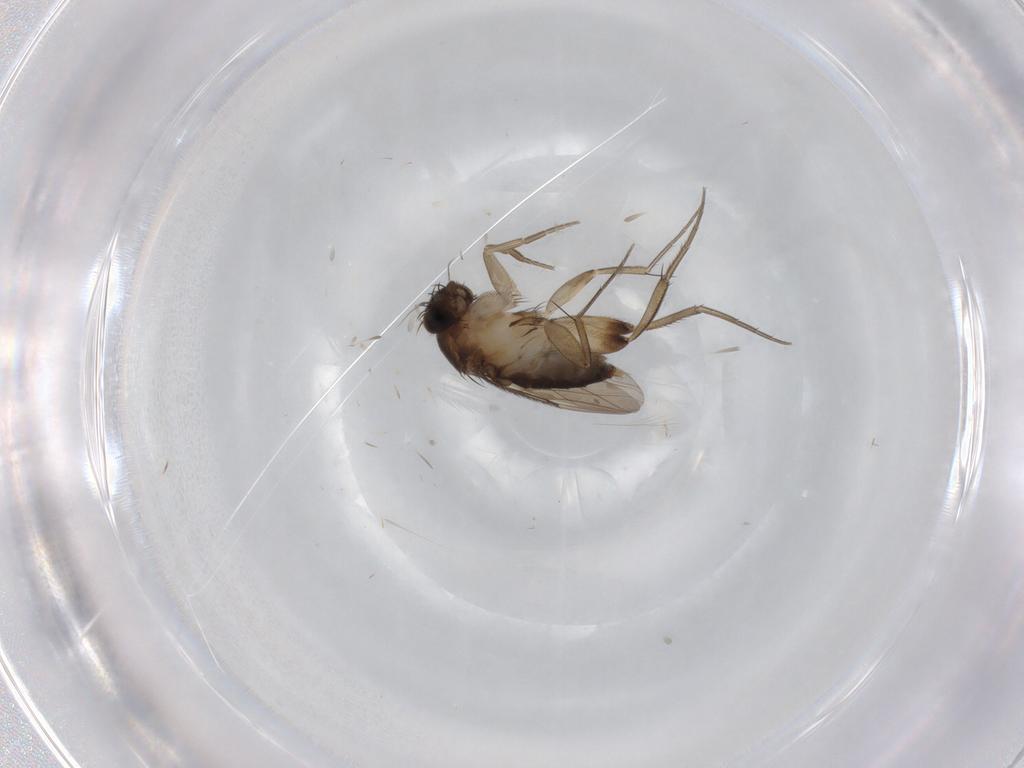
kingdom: Animalia
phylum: Arthropoda
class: Insecta
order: Diptera
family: Phoridae
